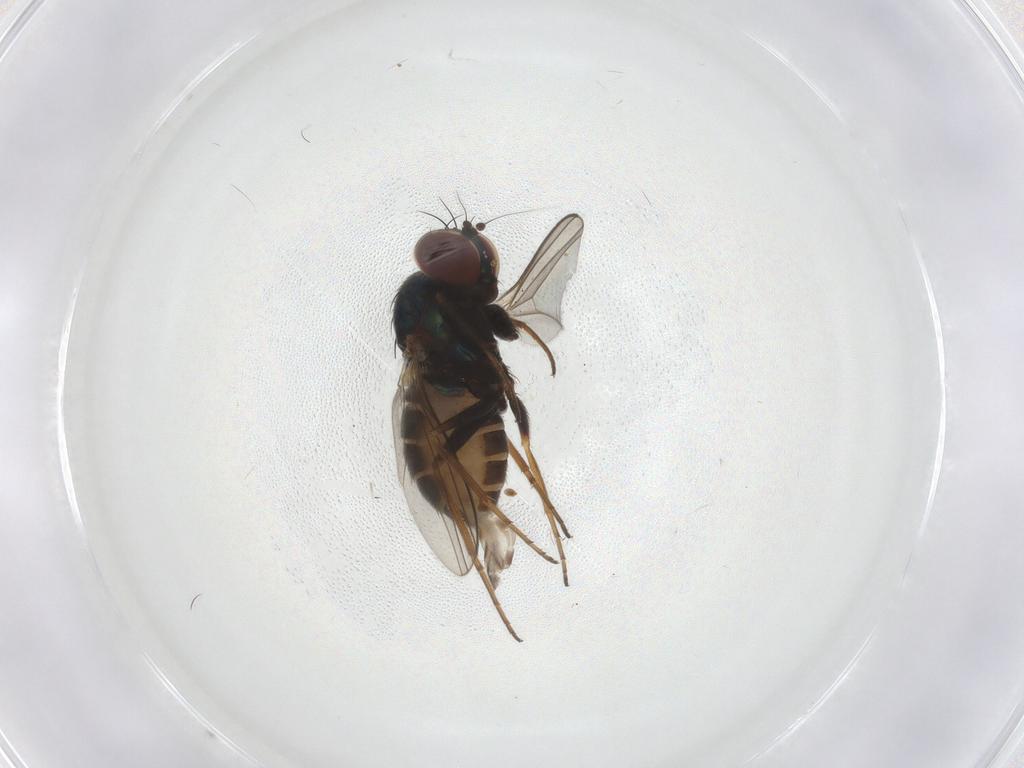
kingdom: Animalia
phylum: Arthropoda
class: Insecta
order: Diptera
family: Dolichopodidae
